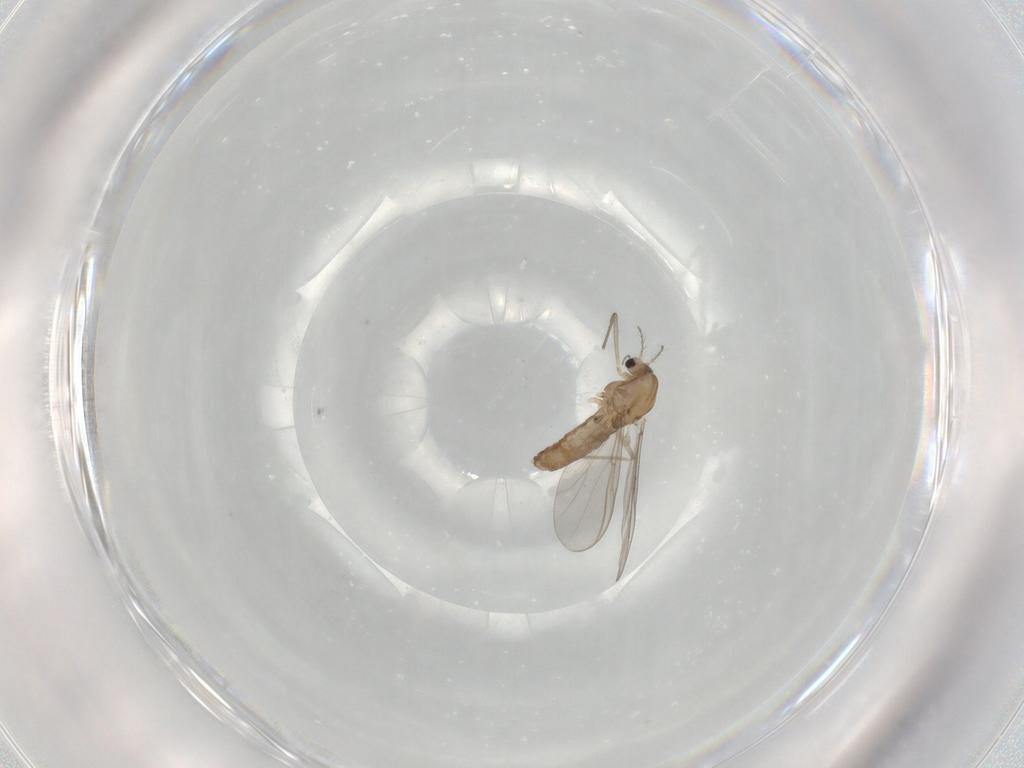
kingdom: Animalia
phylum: Arthropoda
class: Insecta
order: Diptera
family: Chironomidae
